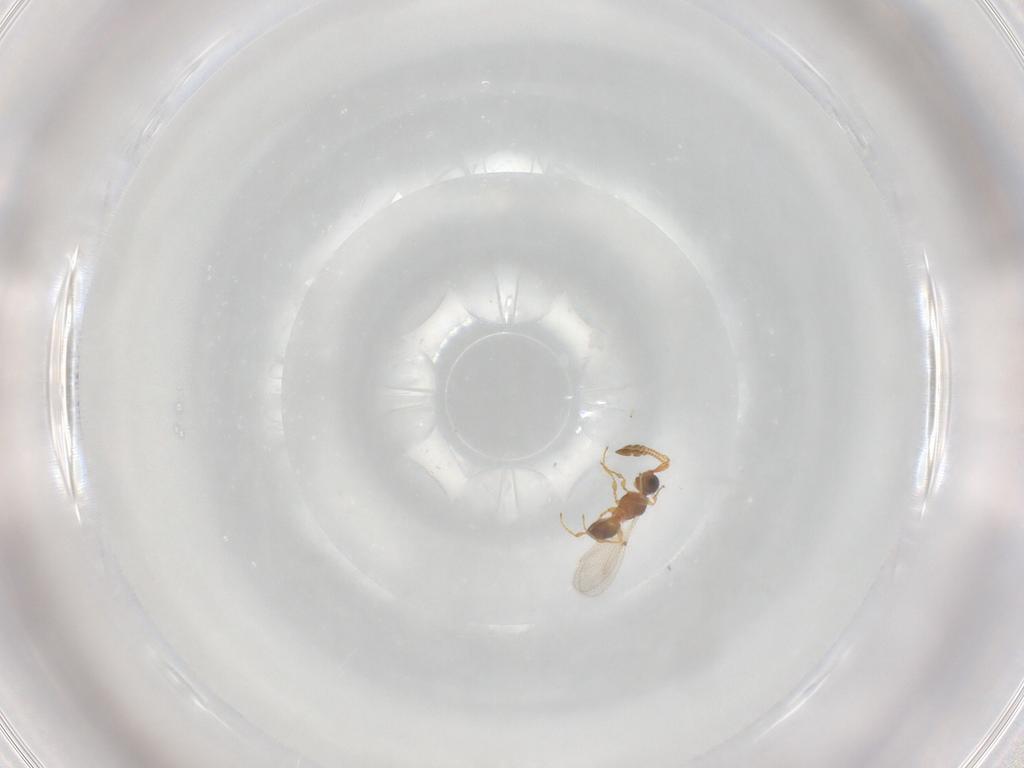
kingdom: Animalia
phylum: Arthropoda
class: Insecta
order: Hymenoptera
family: Diapriidae
